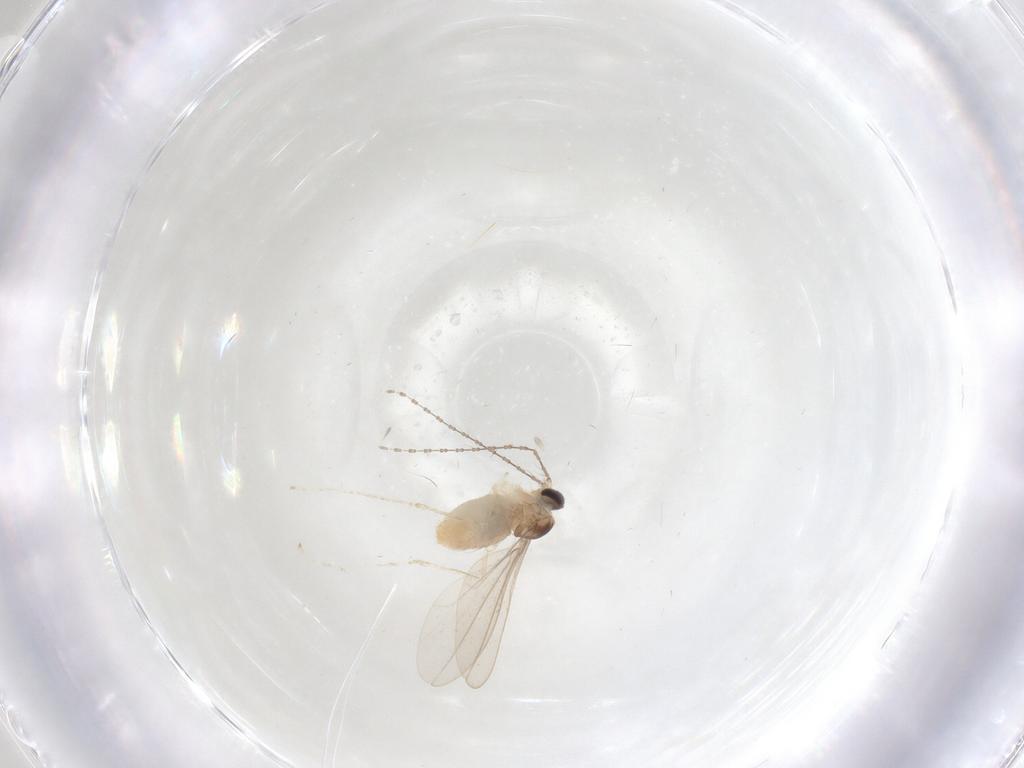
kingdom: Animalia
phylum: Arthropoda
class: Insecta
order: Diptera
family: Cecidomyiidae
